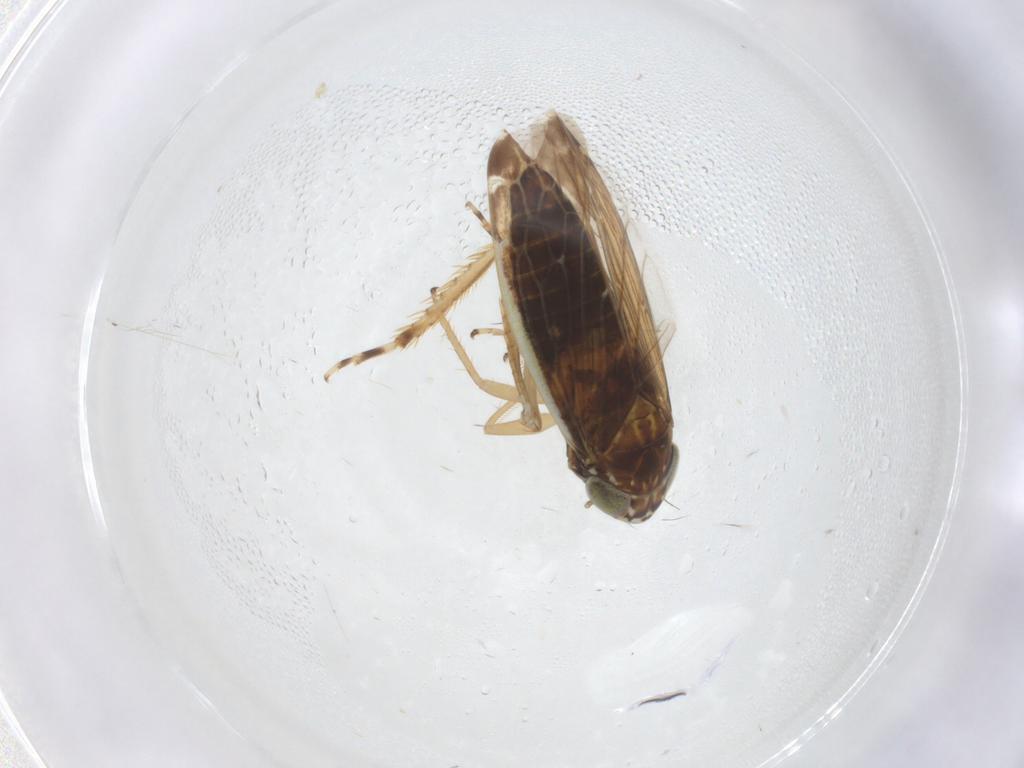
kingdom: Animalia
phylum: Arthropoda
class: Insecta
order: Hemiptera
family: Cicadellidae
